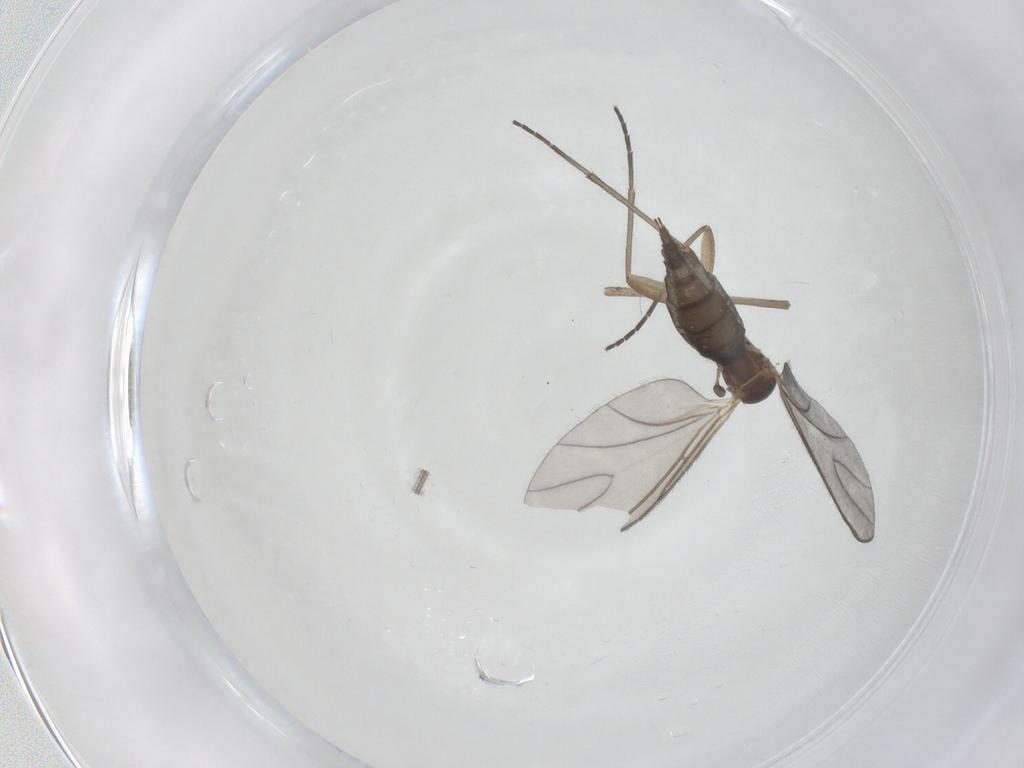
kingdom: Animalia
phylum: Arthropoda
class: Insecta
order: Diptera
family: Sciaridae
